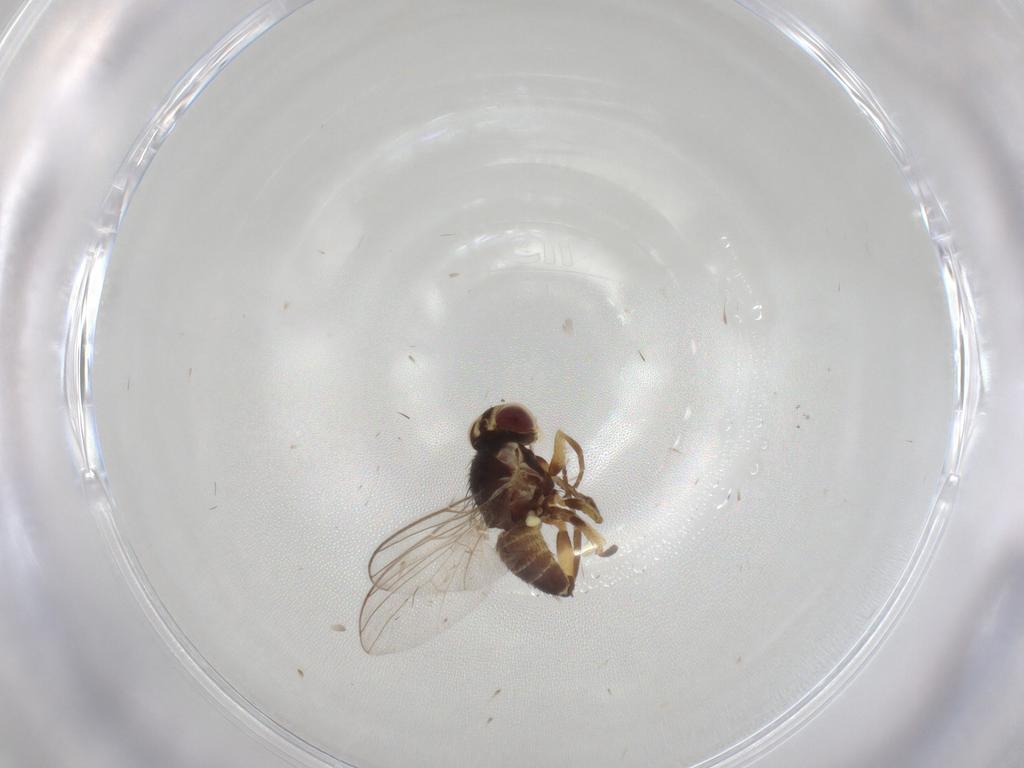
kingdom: Animalia
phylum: Arthropoda
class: Insecta
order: Diptera
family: Agromyzidae
